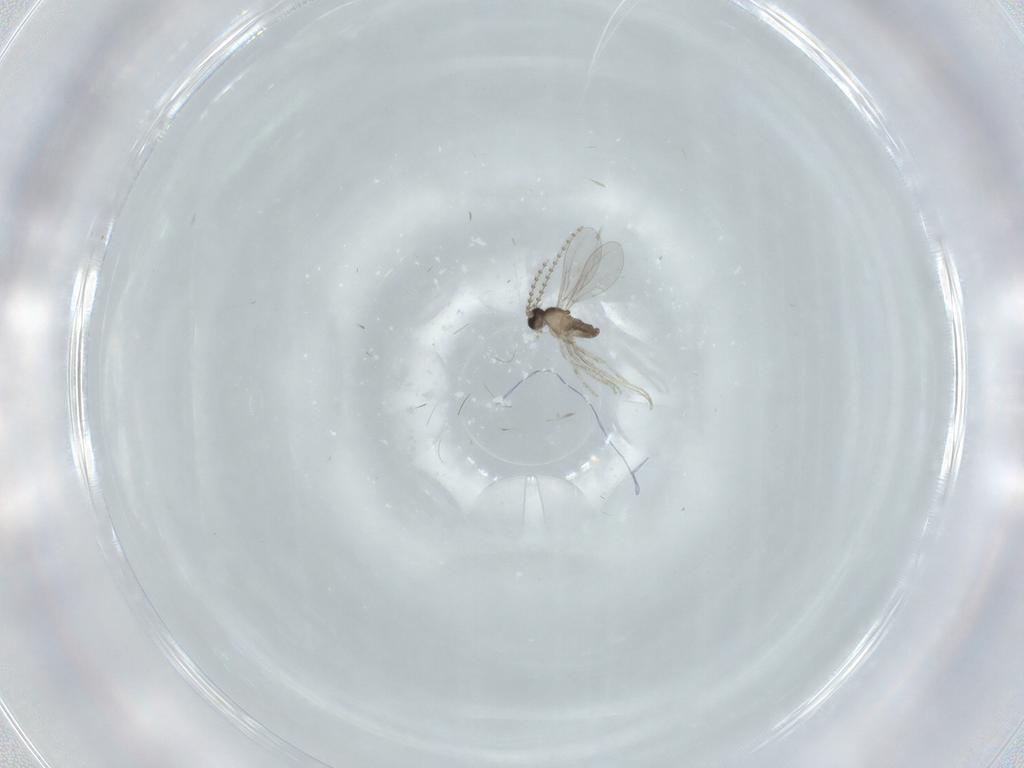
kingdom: Animalia
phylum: Arthropoda
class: Insecta
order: Diptera
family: Cecidomyiidae
